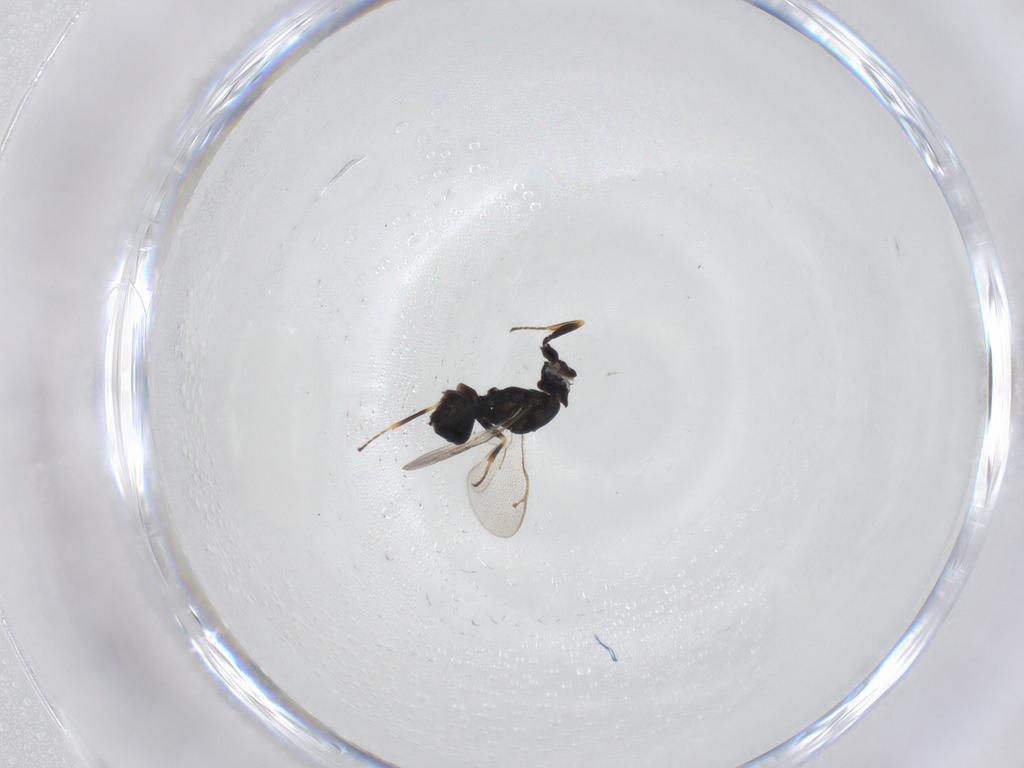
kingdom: Animalia
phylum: Arthropoda
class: Insecta
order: Hymenoptera
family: Pteromalidae
